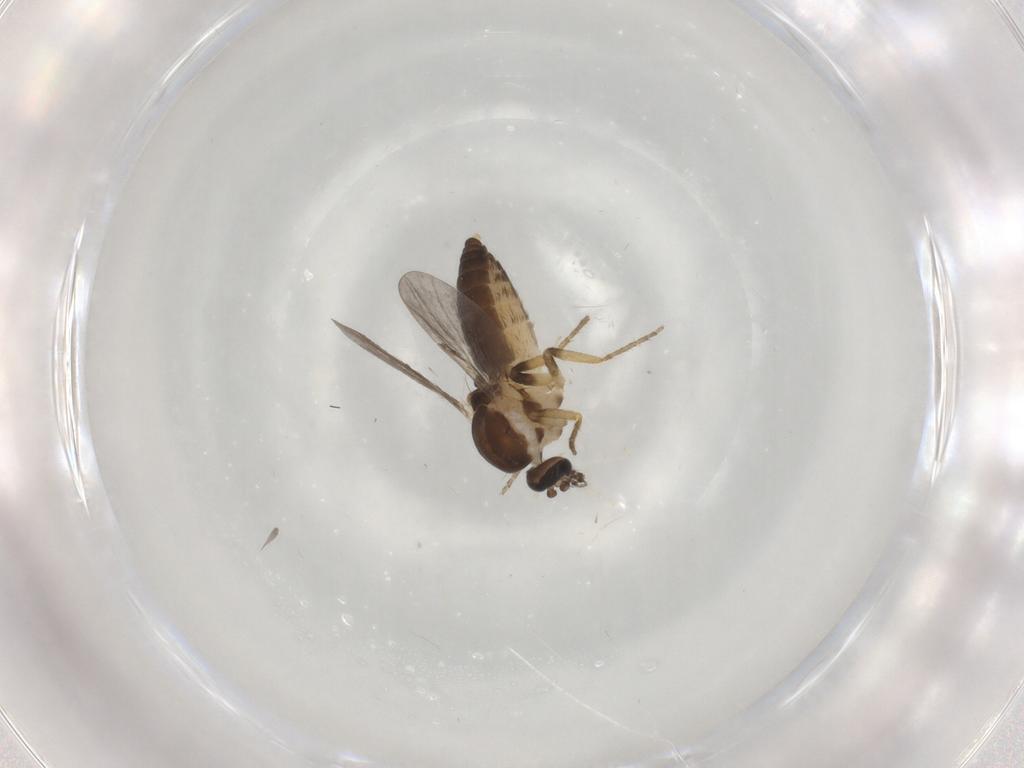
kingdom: Animalia
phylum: Arthropoda
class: Insecta
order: Diptera
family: Ceratopogonidae
